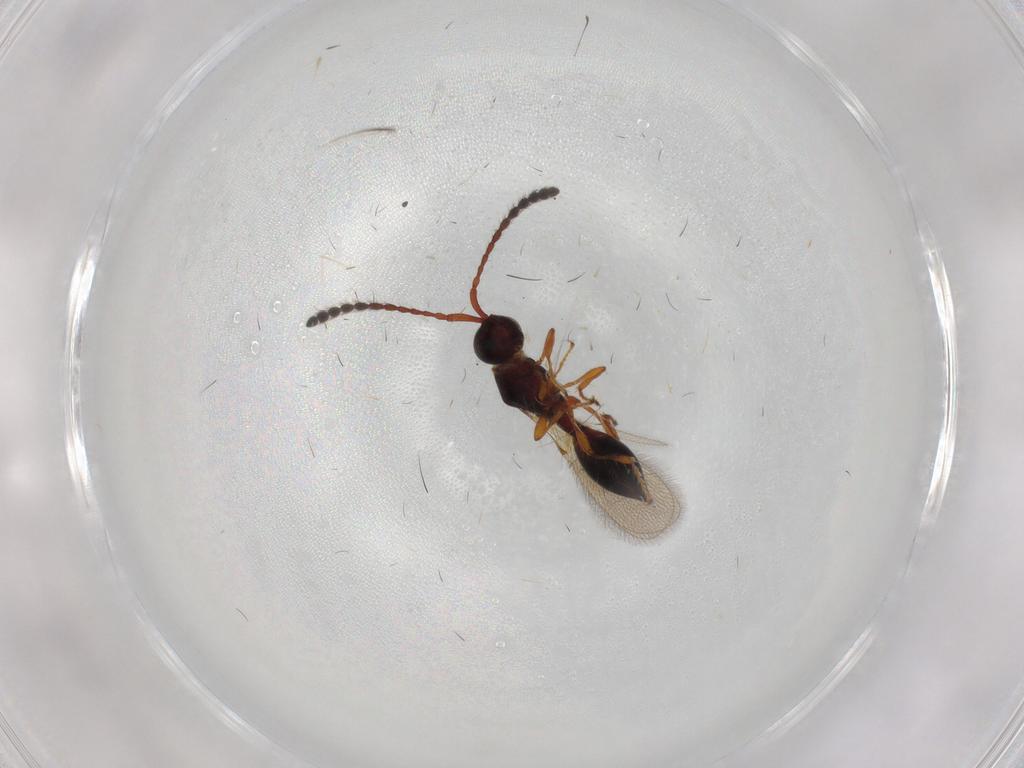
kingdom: Animalia
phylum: Arthropoda
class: Insecta
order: Hymenoptera
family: Diapriidae
